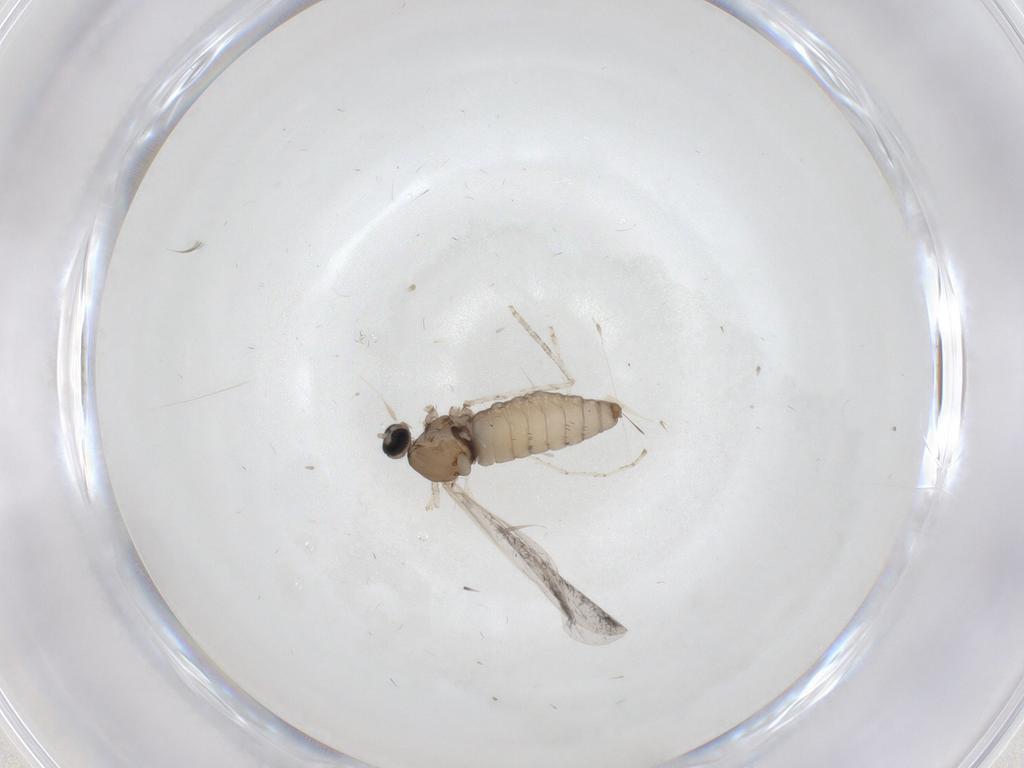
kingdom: Animalia
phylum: Arthropoda
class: Insecta
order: Diptera
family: Cecidomyiidae
